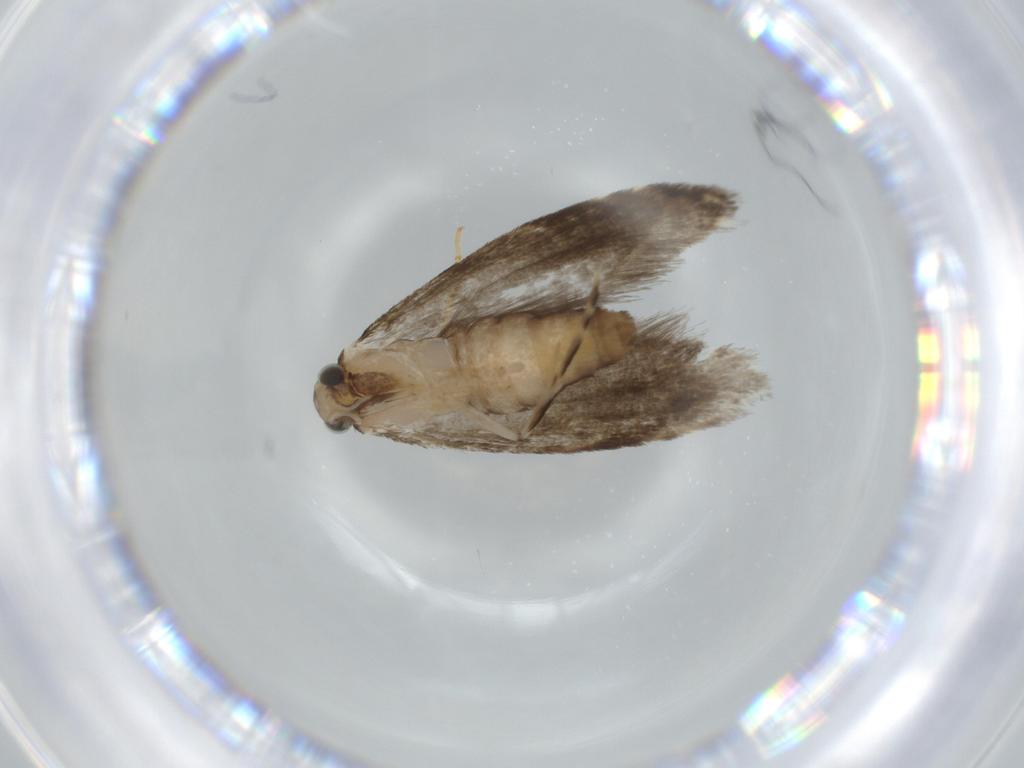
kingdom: Animalia
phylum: Arthropoda
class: Insecta
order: Lepidoptera
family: Tineidae
